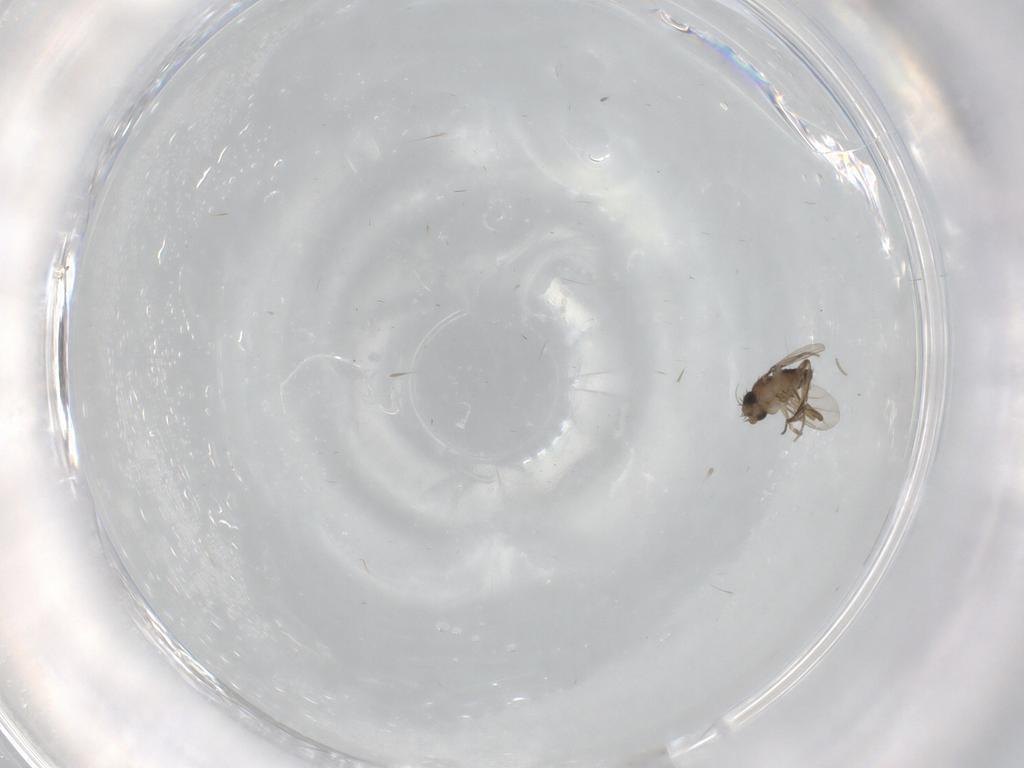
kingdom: Animalia
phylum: Arthropoda
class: Insecta
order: Diptera
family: Phoridae
